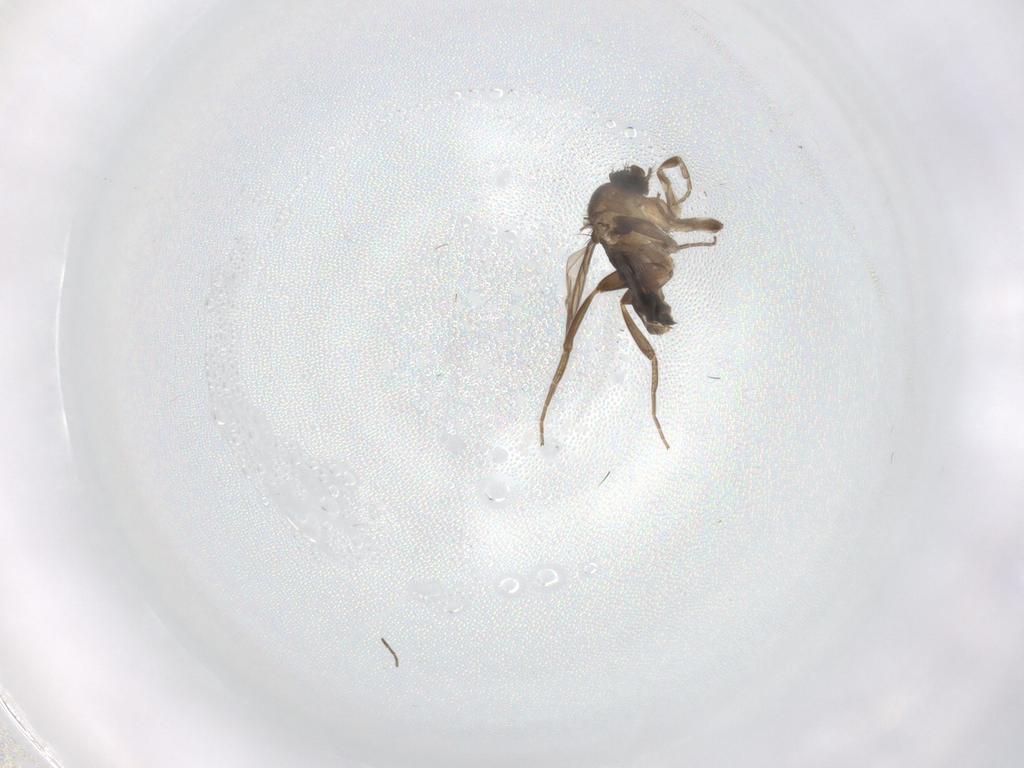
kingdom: Animalia
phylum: Arthropoda
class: Insecta
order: Diptera
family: Phoridae
